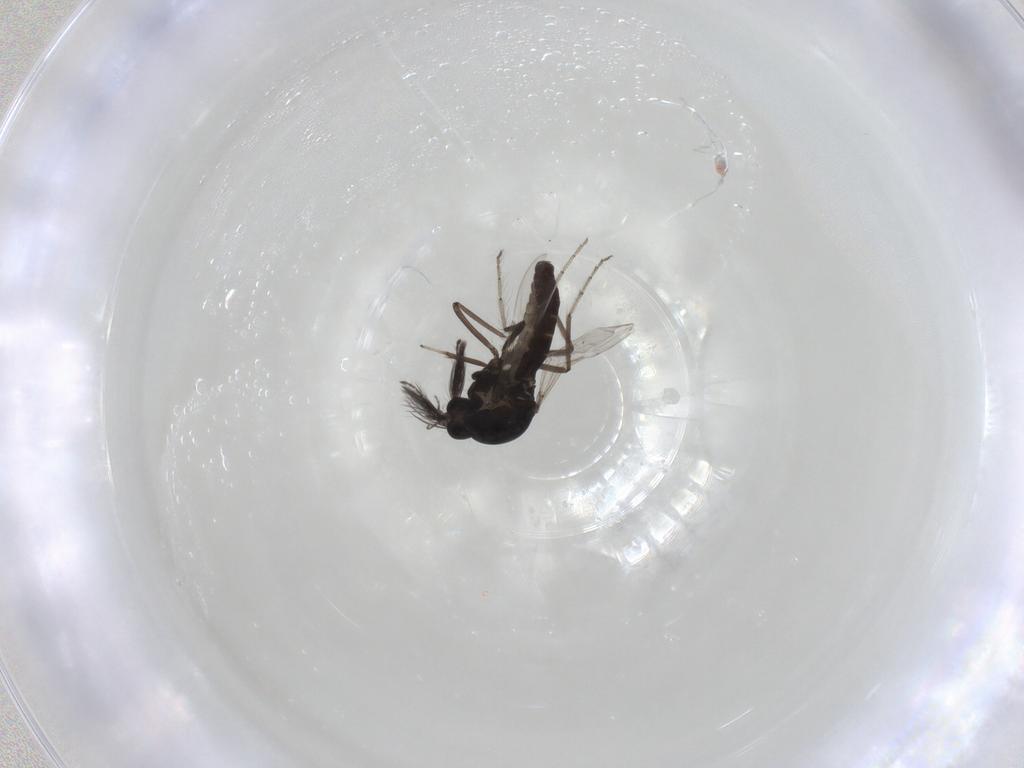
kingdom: Animalia
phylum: Arthropoda
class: Insecta
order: Diptera
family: Ceratopogonidae
